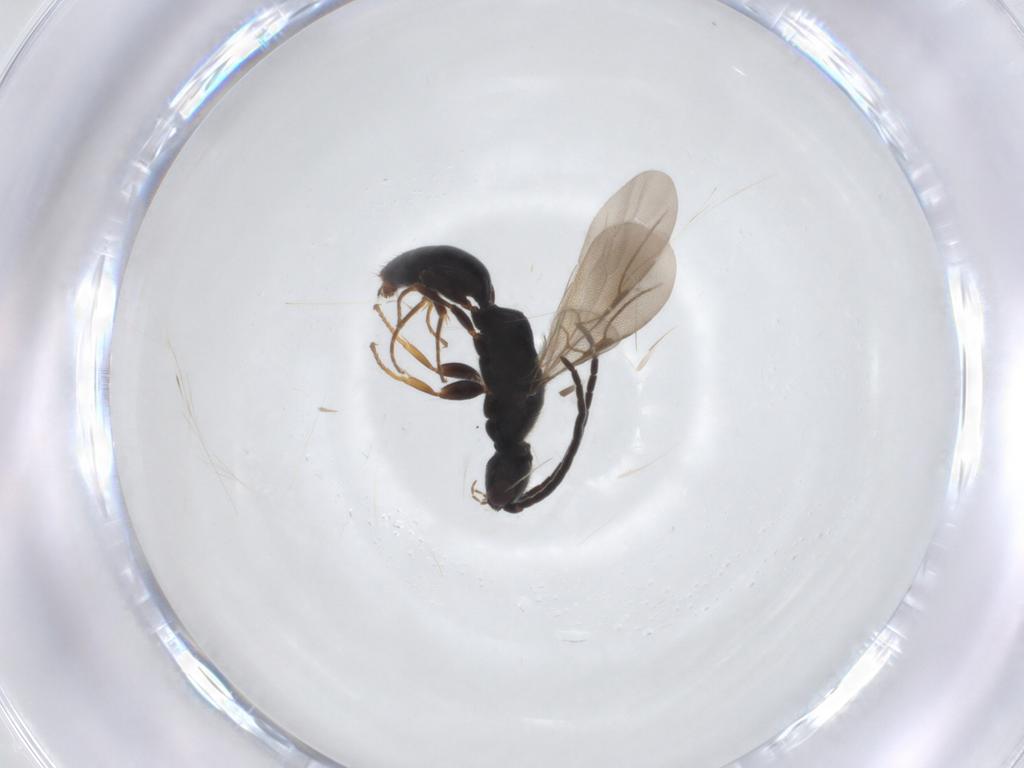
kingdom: Animalia
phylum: Arthropoda
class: Insecta
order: Hymenoptera
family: Bethylidae
